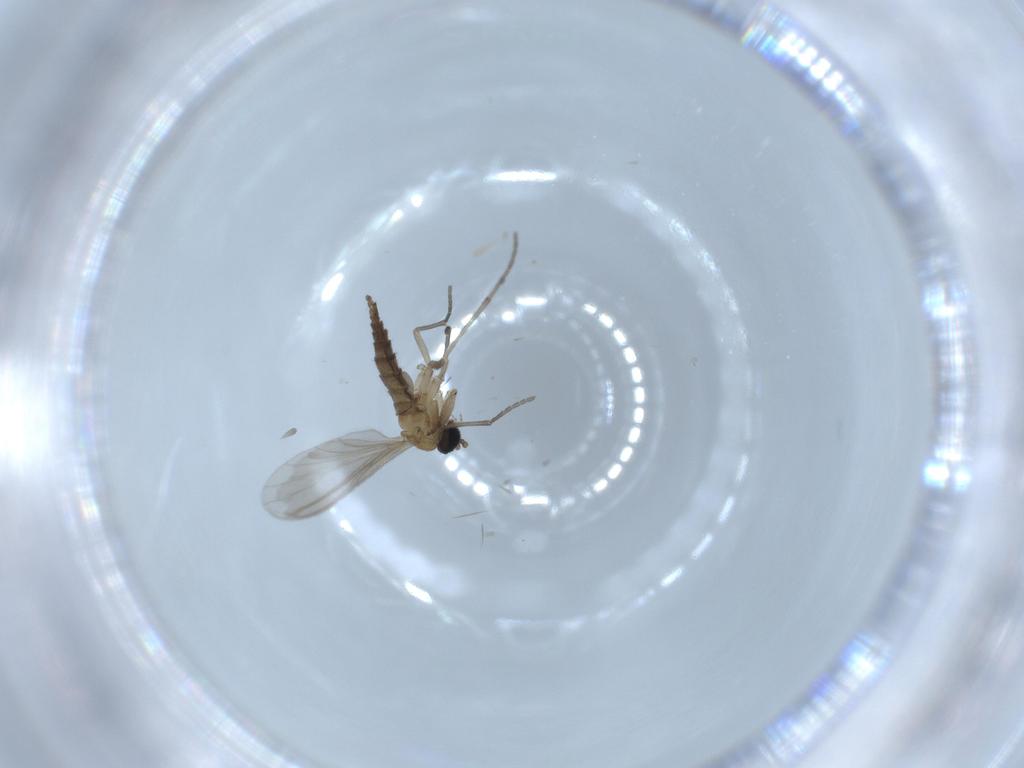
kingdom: Animalia
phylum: Arthropoda
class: Insecta
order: Diptera
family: Sciaridae
